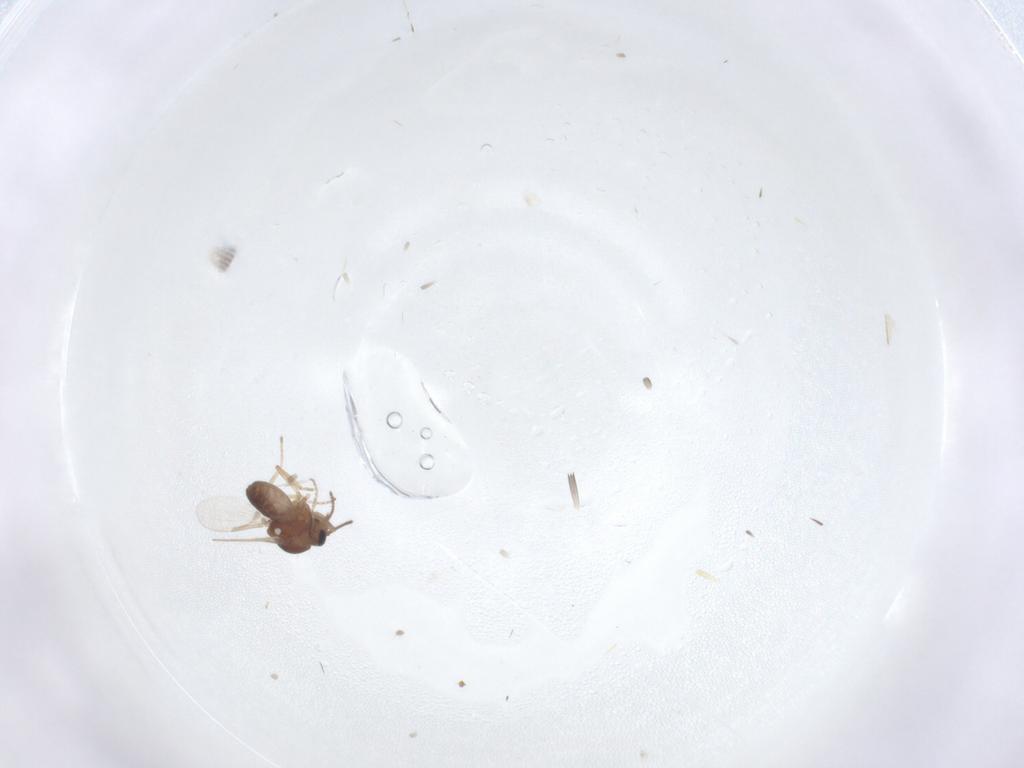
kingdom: Animalia
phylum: Arthropoda
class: Insecta
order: Diptera
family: Ceratopogonidae
